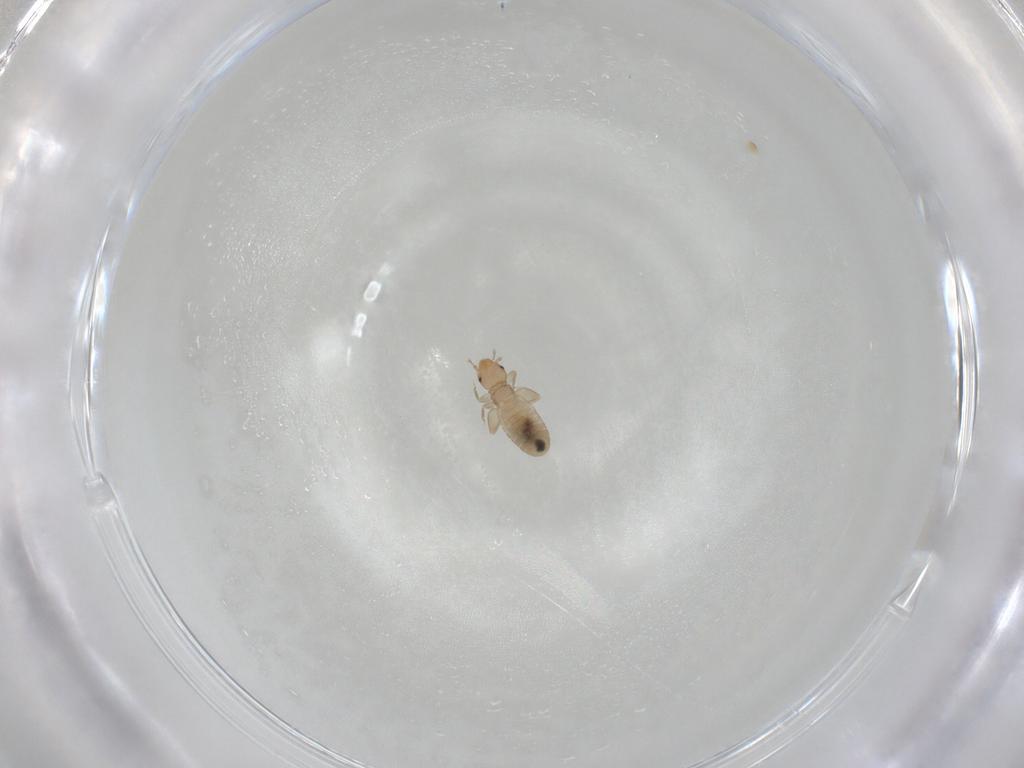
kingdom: Animalia
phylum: Arthropoda
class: Insecta
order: Psocodea
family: Liposcelididae
